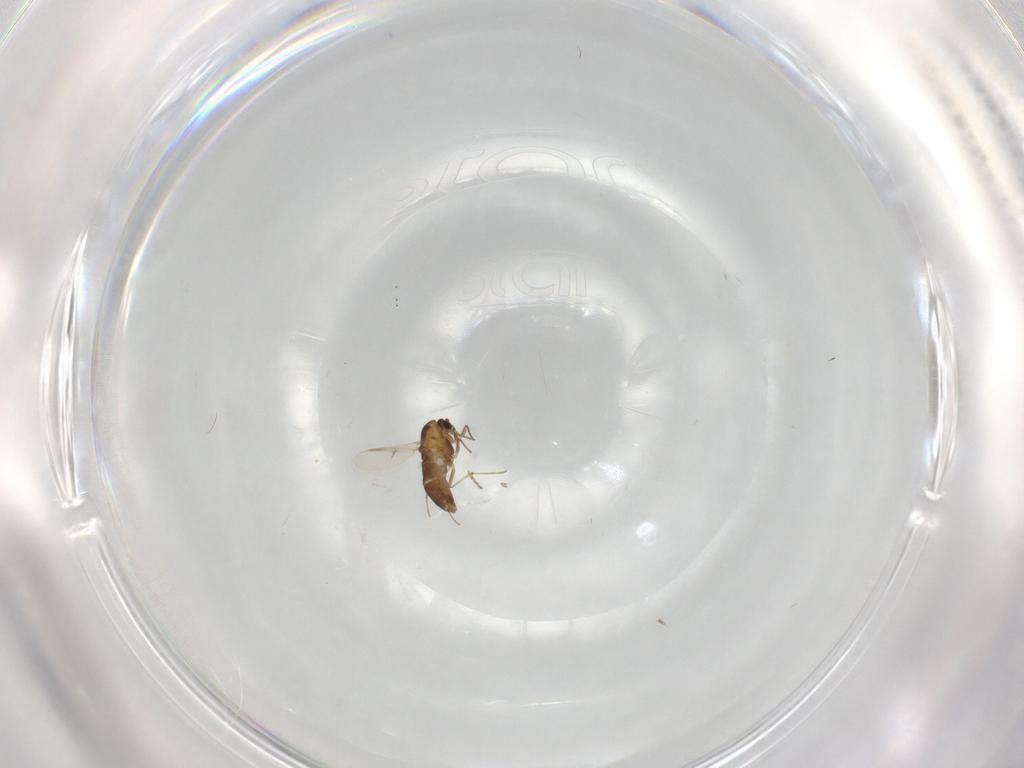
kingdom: Animalia
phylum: Arthropoda
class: Insecta
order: Diptera
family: Chironomidae
